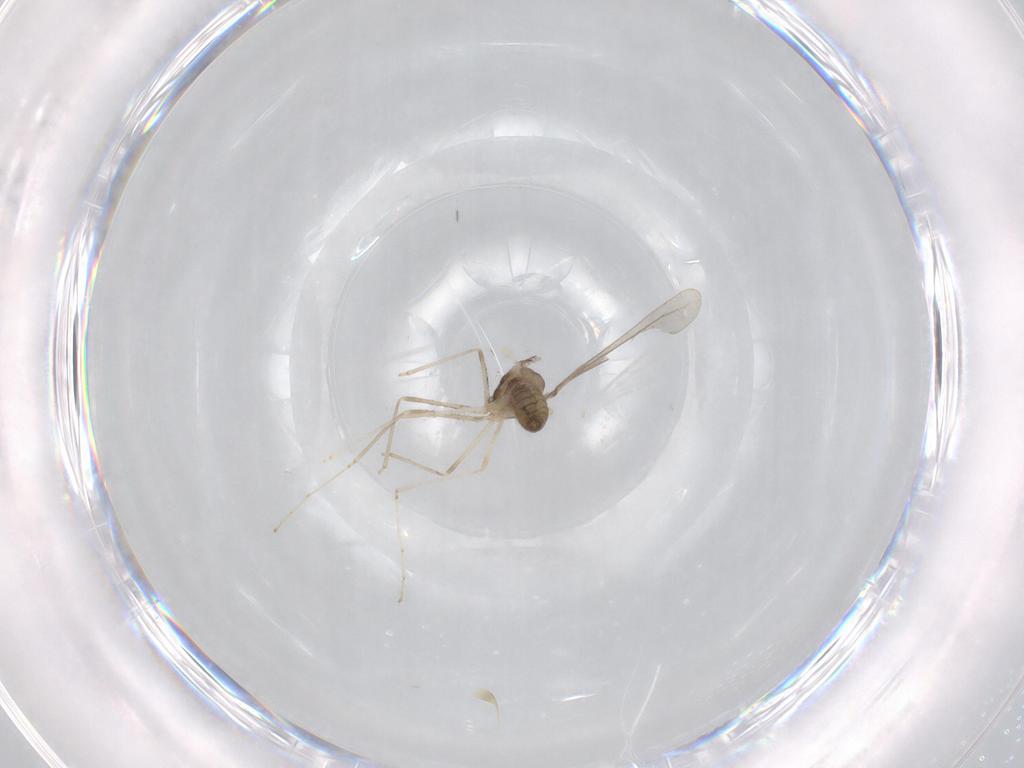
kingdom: Animalia
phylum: Arthropoda
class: Insecta
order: Diptera
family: Cecidomyiidae
